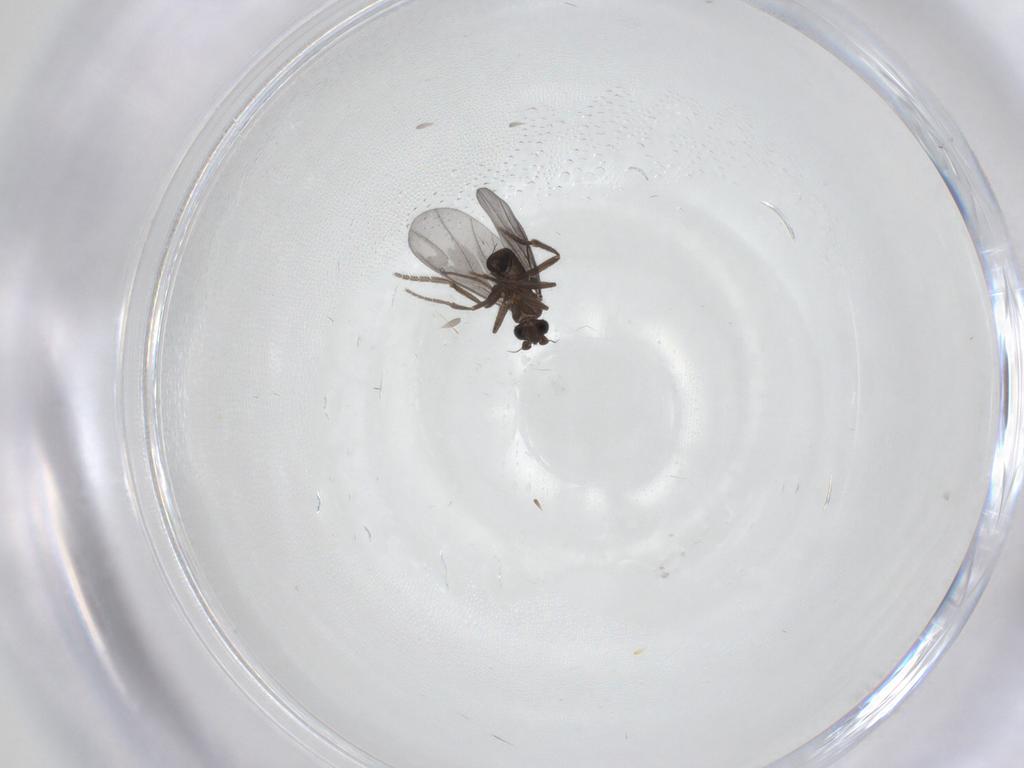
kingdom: Animalia
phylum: Arthropoda
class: Insecta
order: Diptera
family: Phoridae
